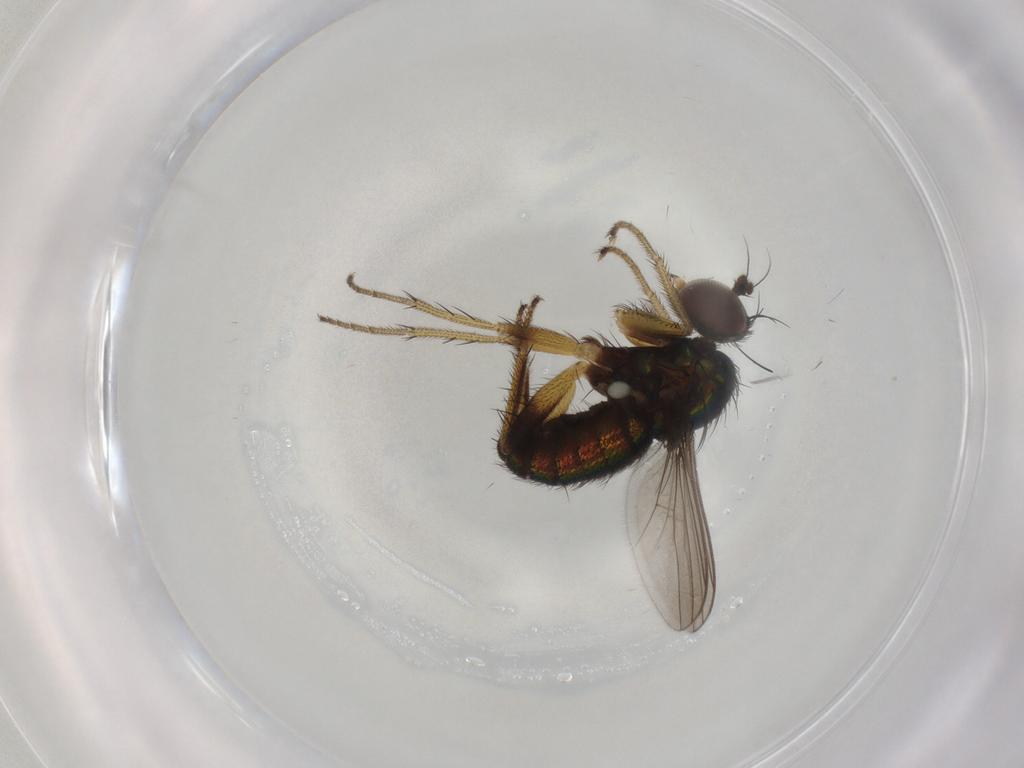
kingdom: Animalia
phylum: Arthropoda
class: Insecta
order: Diptera
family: Dolichopodidae
